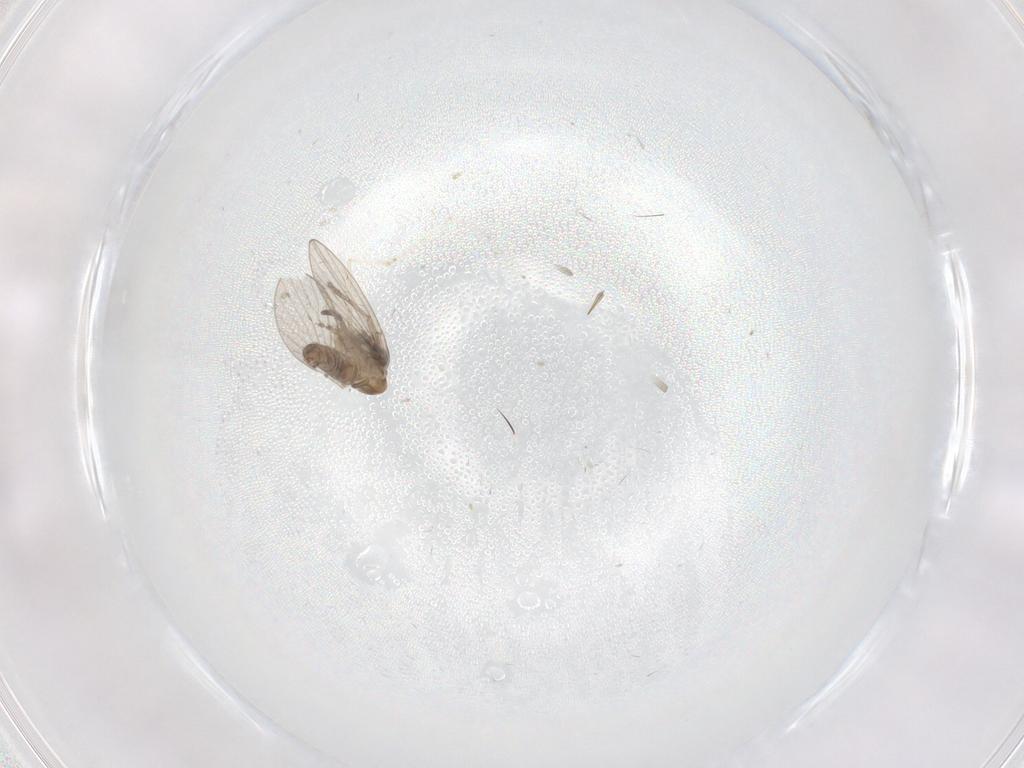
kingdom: Animalia
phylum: Arthropoda
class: Insecta
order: Diptera
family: Cecidomyiidae
